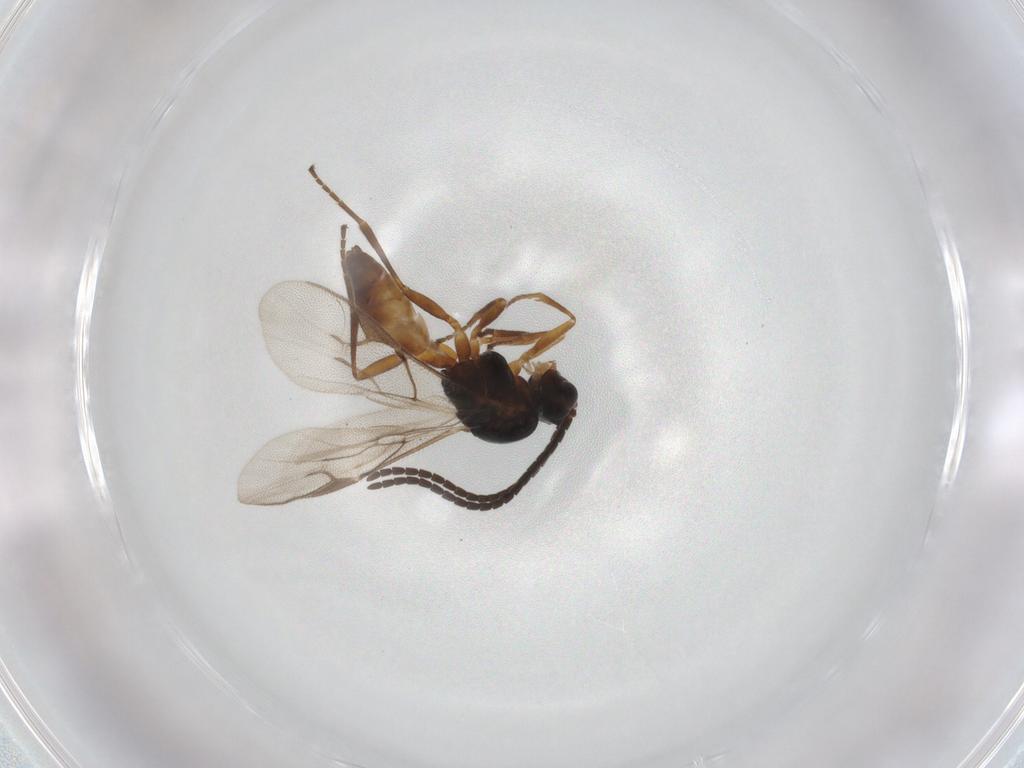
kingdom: Animalia
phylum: Arthropoda
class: Insecta
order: Hymenoptera
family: Braconidae
